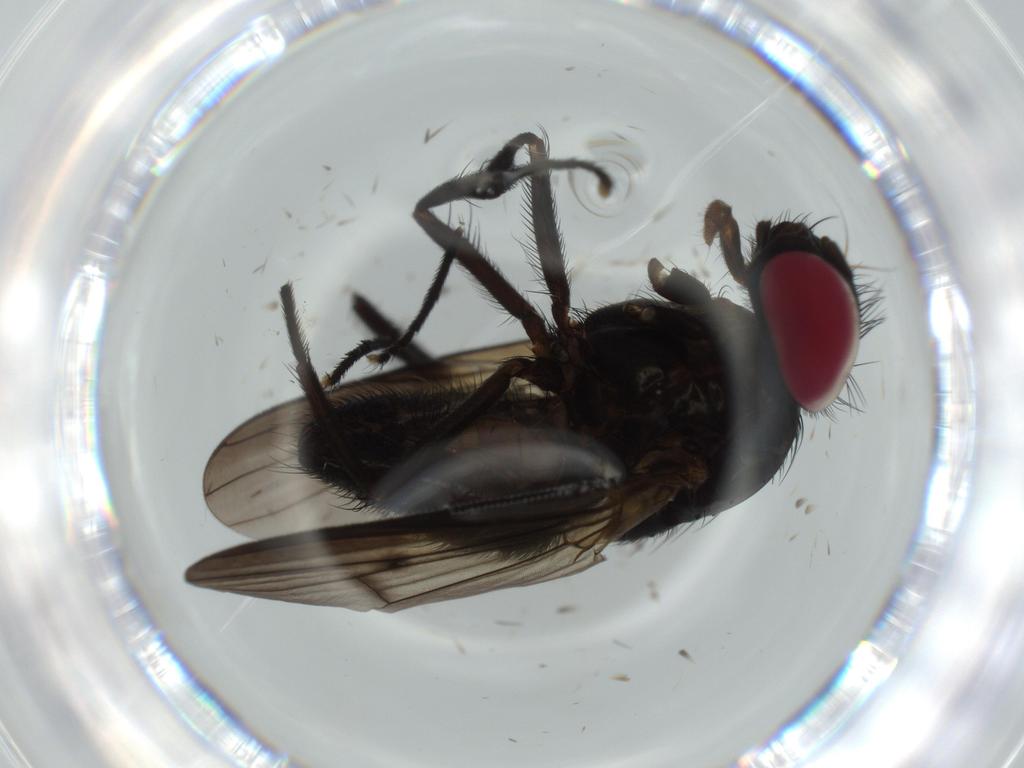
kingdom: Animalia
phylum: Arthropoda
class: Insecta
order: Diptera
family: Fannia
